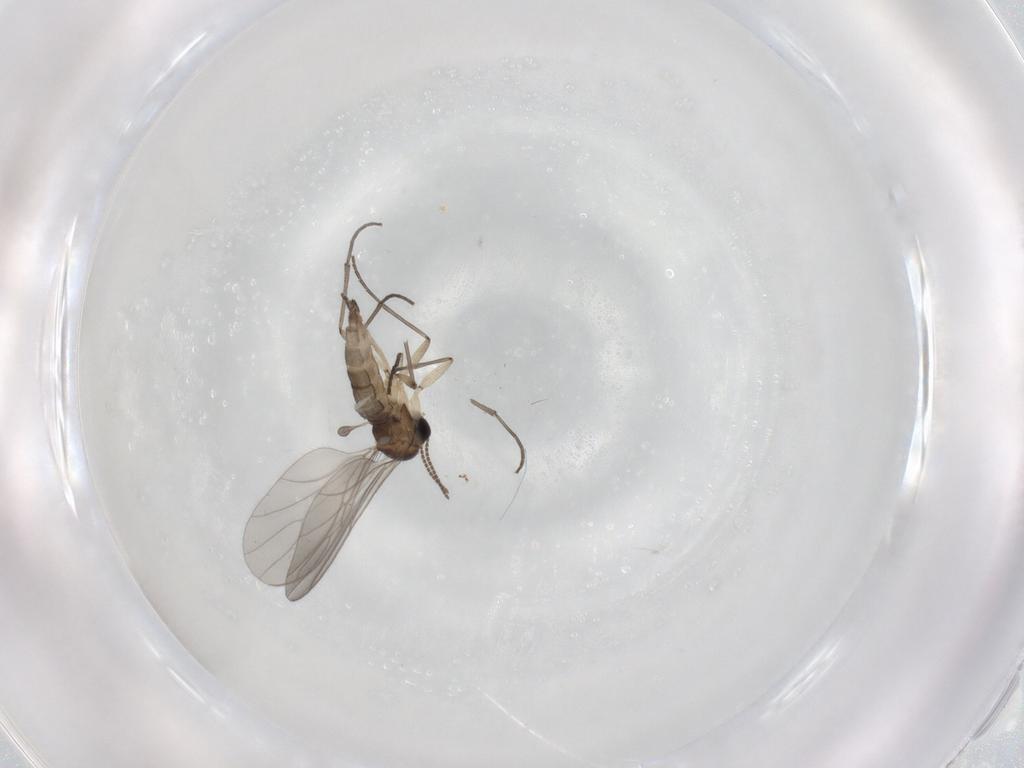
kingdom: Animalia
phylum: Arthropoda
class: Insecta
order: Diptera
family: Sciaridae
